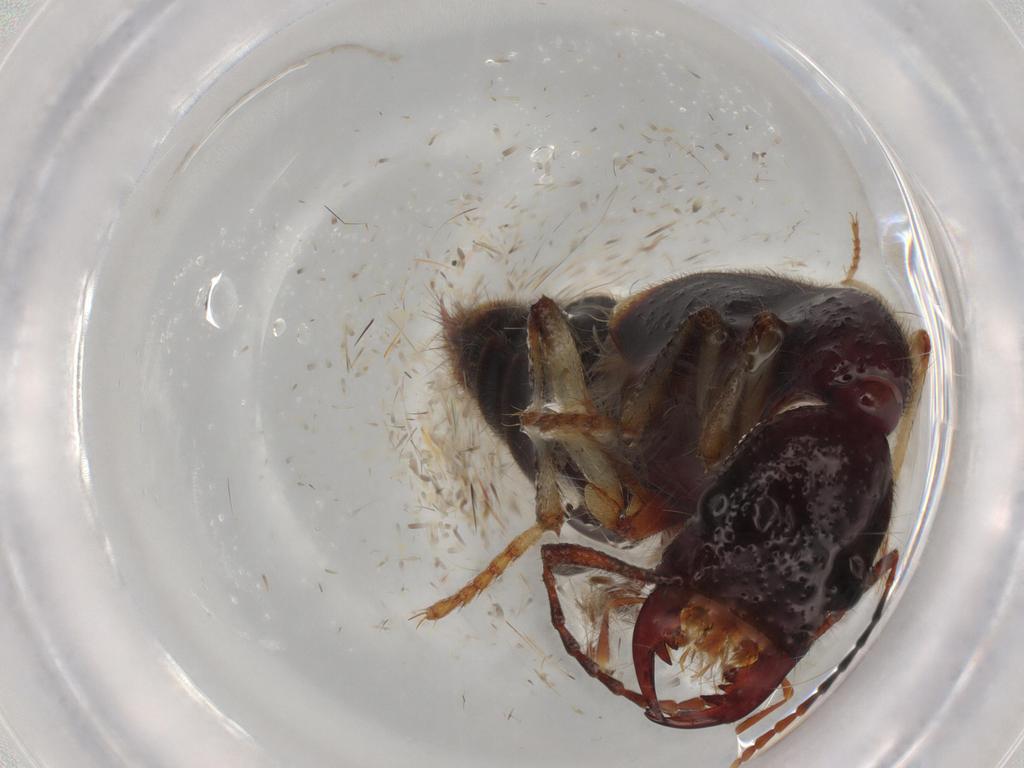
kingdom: Animalia
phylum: Arthropoda
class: Insecta
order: Coleoptera
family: Staphylinidae
